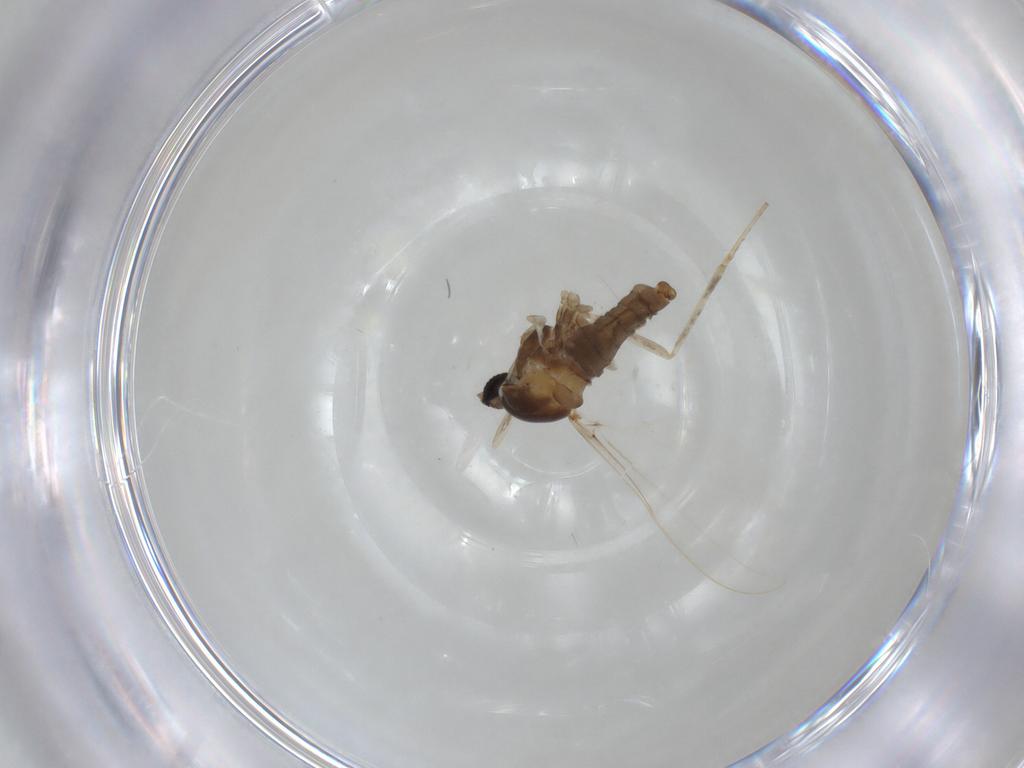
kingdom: Animalia
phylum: Arthropoda
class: Insecta
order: Diptera
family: Cecidomyiidae
